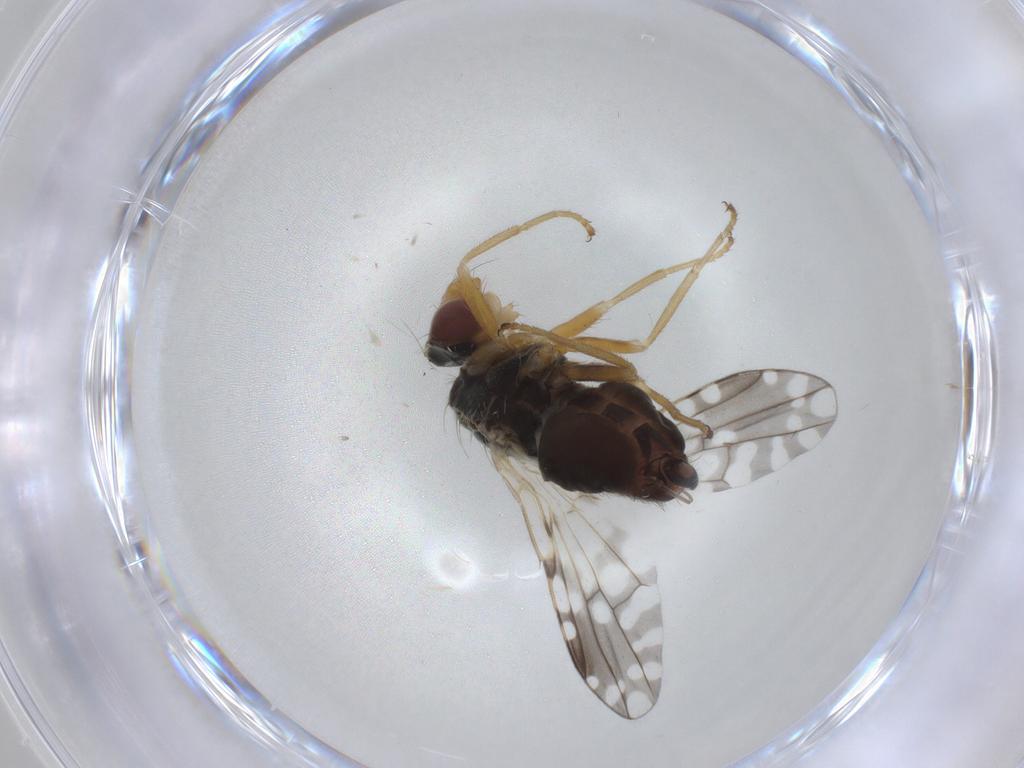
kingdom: Animalia
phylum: Arthropoda
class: Insecta
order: Diptera
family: Tephritidae
